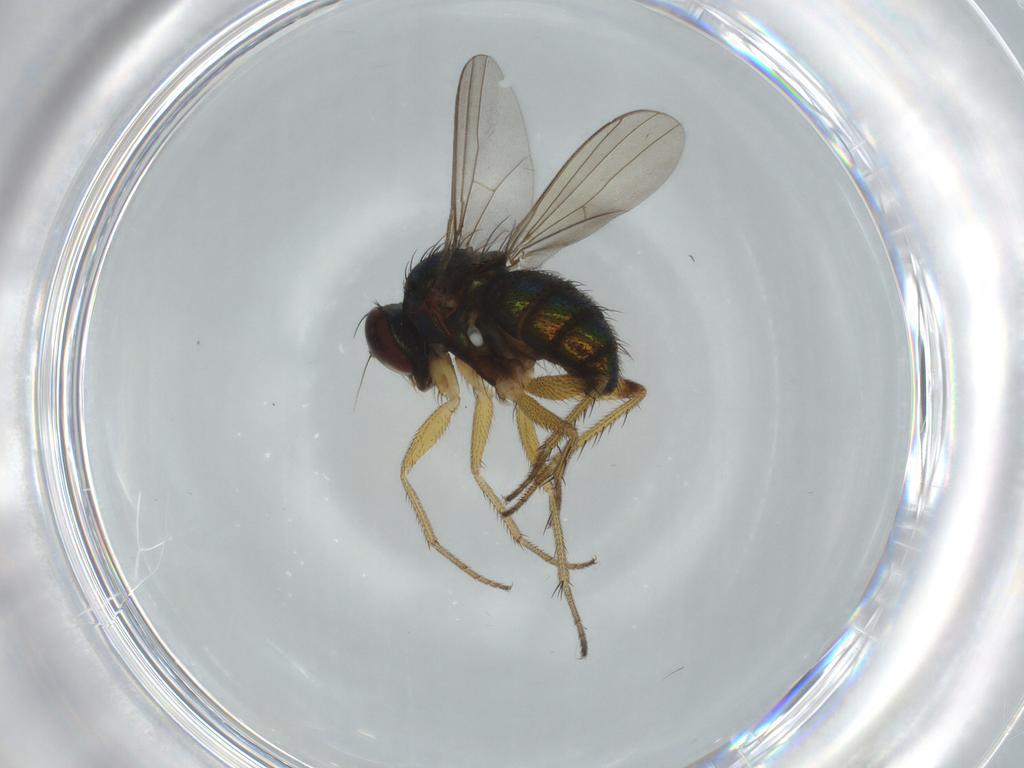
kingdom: Animalia
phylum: Arthropoda
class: Insecta
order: Diptera
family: Dolichopodidae
